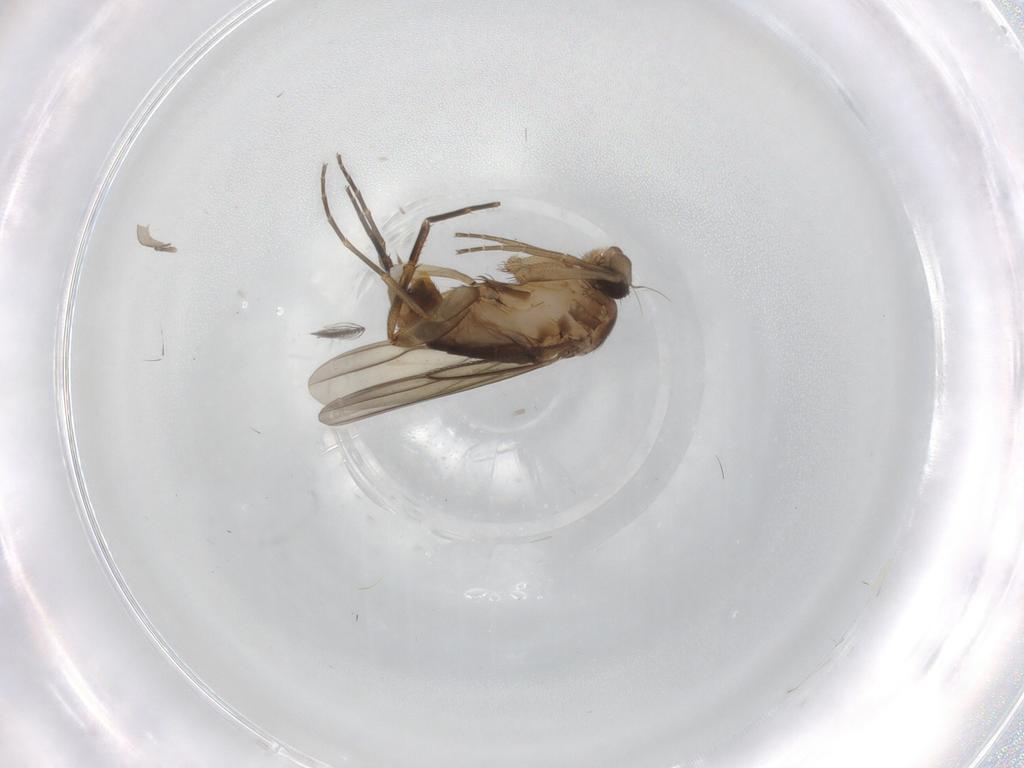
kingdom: Animalia
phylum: Arthropoda
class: Insecta
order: Diptera
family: Phoridae
